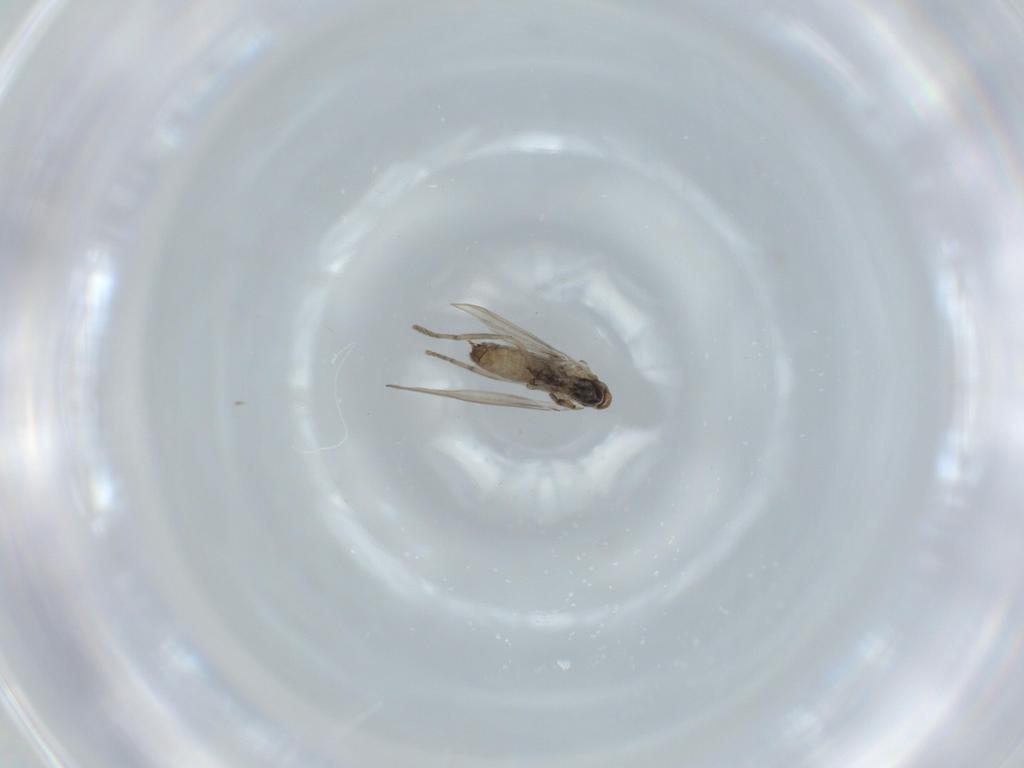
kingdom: Animalia
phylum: Arthropoda
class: Insecta
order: Diptera
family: Psychodidae
